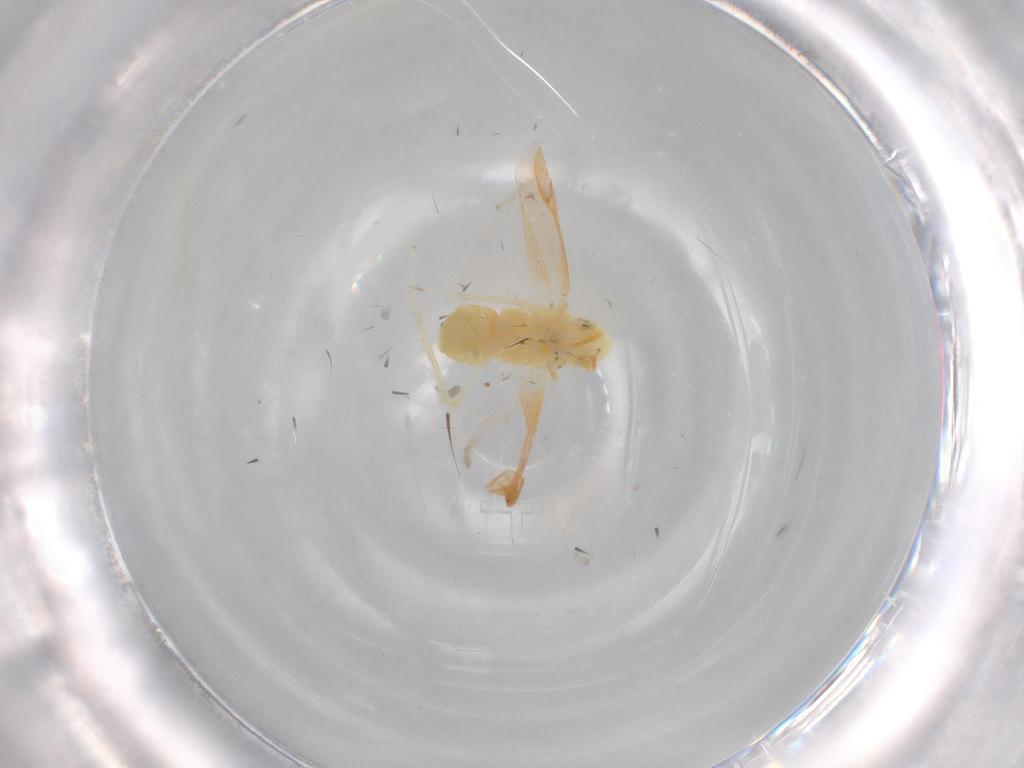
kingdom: Animalia
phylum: Arthropoda
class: Insecta
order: Hemiptera
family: Cicadellidae
